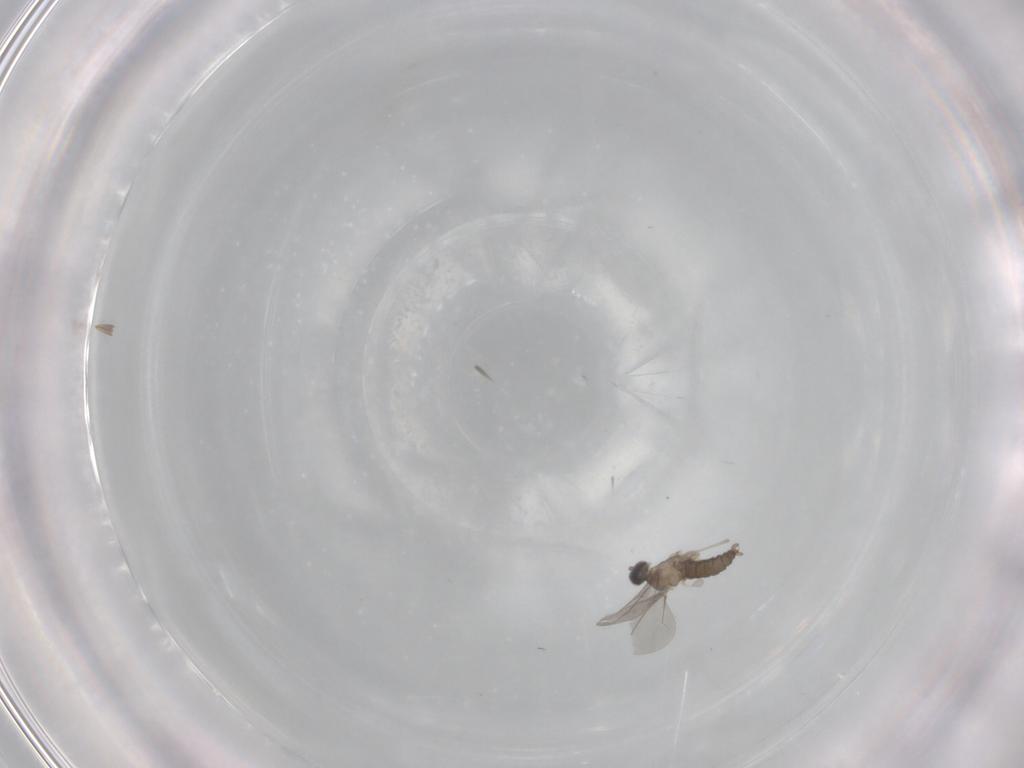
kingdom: Animalia
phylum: Arthropoda
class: Insecta
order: Diptera
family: Cecidomyiidae
